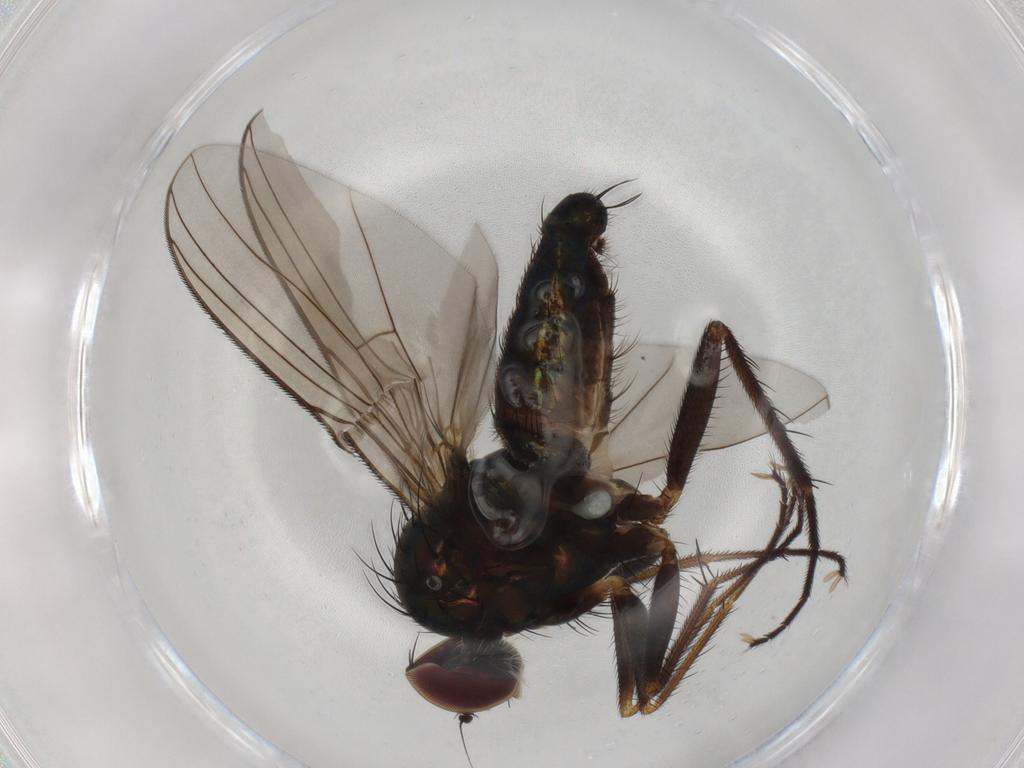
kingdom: Animalia
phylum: Arthropoda
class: Insecta
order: Diptera
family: Dolichopodidae
